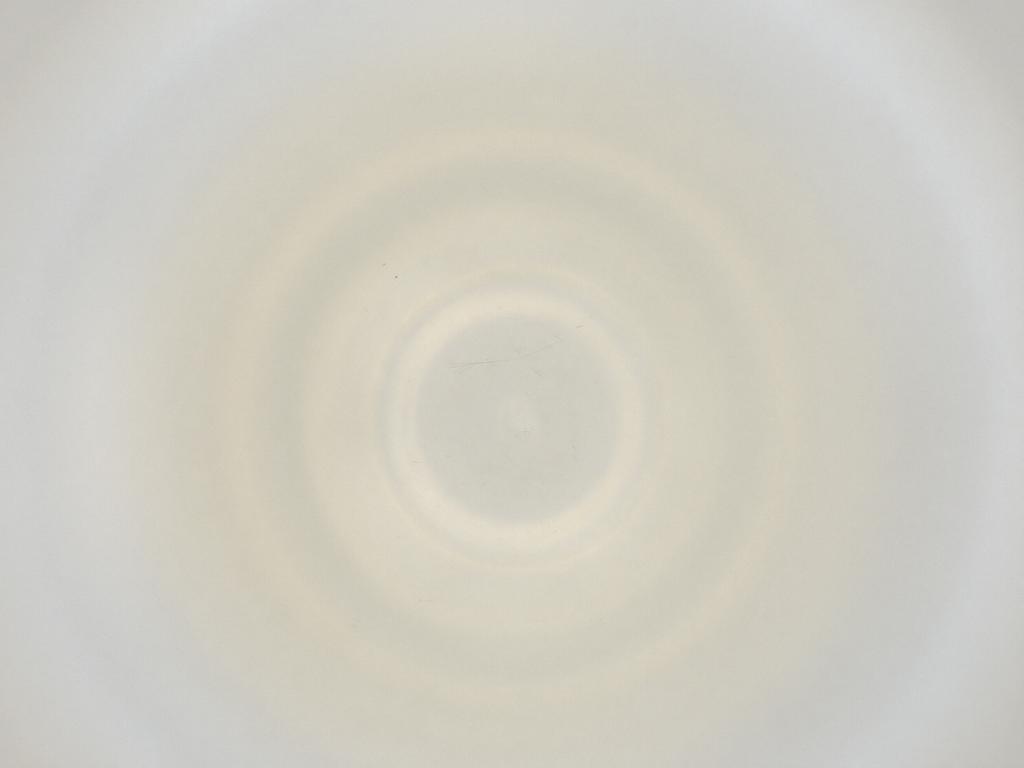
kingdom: Animalia
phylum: Arthropoda
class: Insecta
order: Diptera
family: Cecidomyiidae
